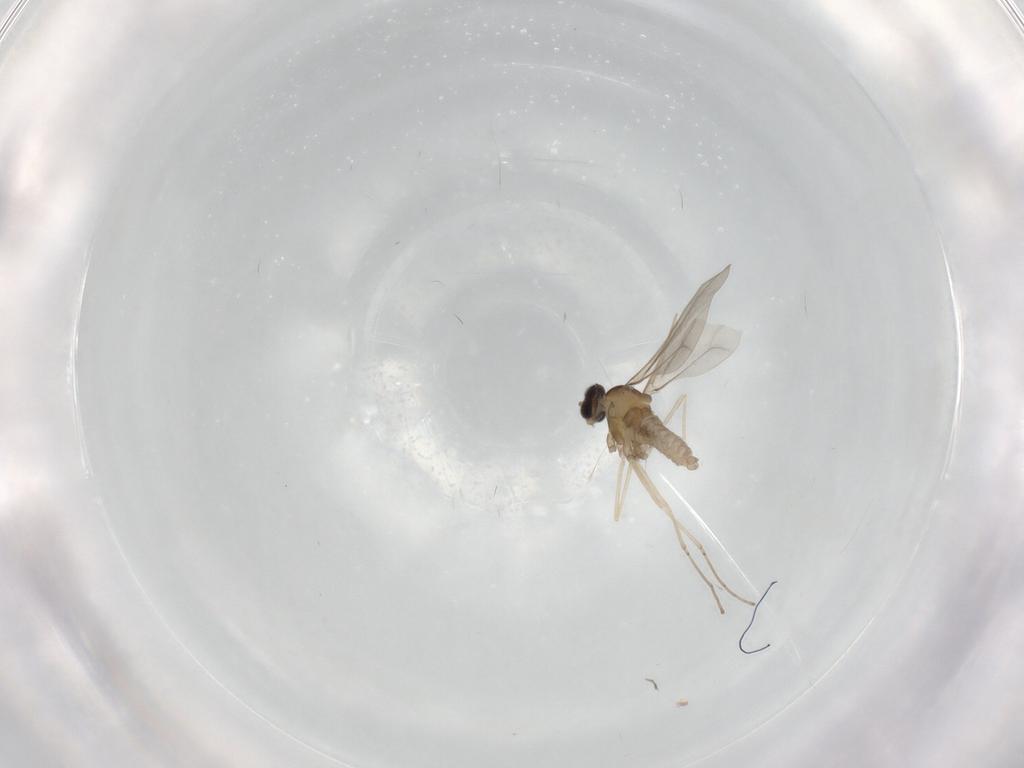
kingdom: Animalia
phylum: Arthropoda
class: Insecta
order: Diptera
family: Cecidomyiidae
